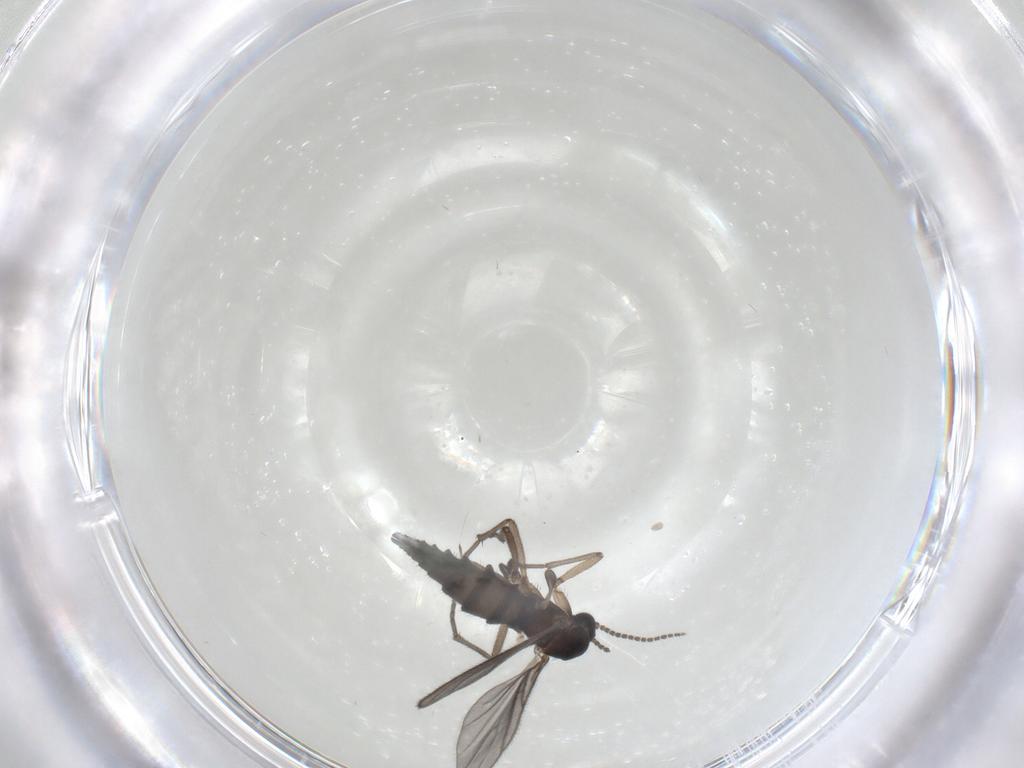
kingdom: Animalia
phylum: Arthropoda
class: Insecta
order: Diptera
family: Sciaridae
